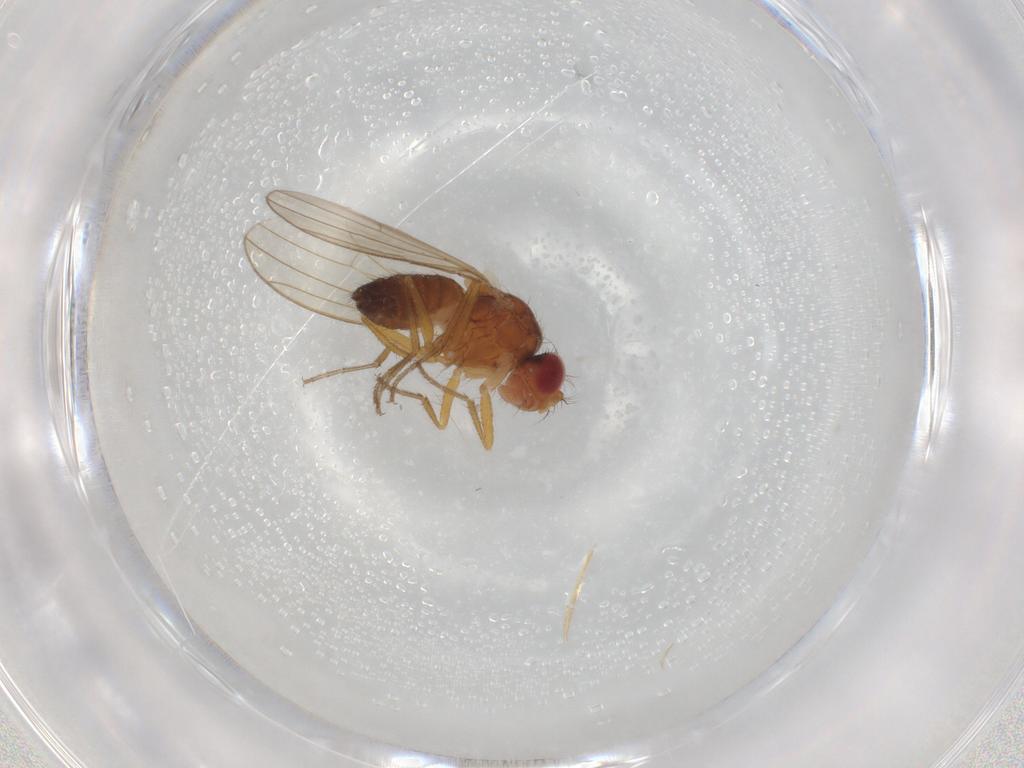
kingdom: Animalia
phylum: Arthropoda
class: Insecta
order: Diptera
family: Drosophilidae
